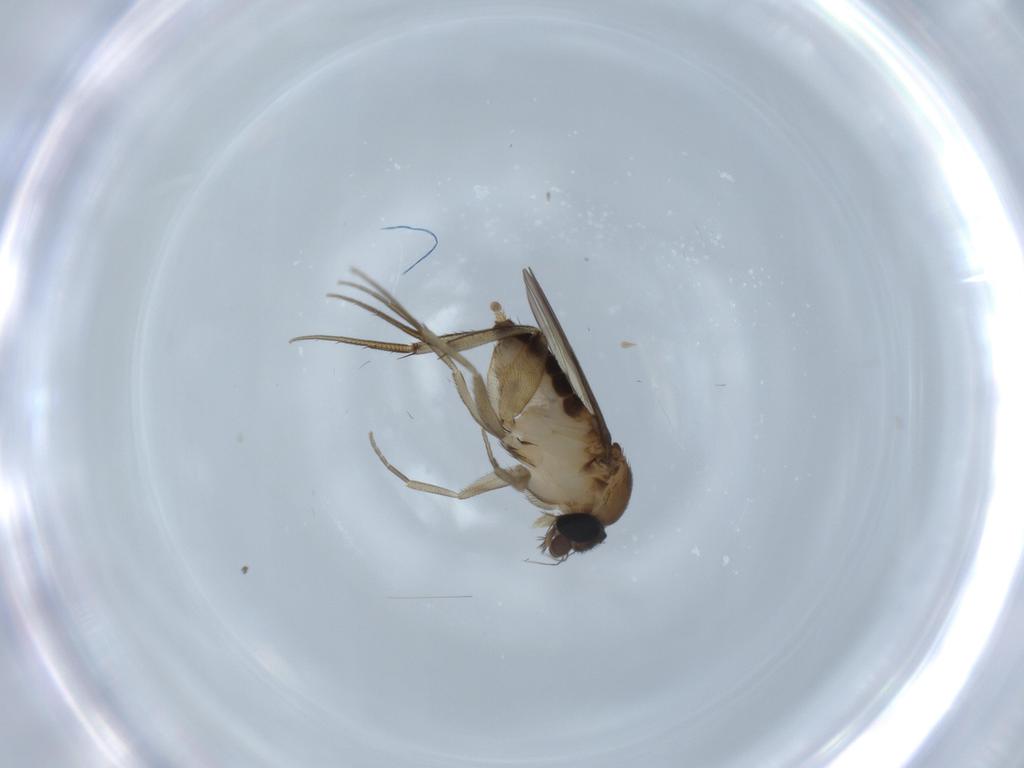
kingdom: Animalia
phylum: Arthropoda
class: Insecta
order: Diptera
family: Phoridae
